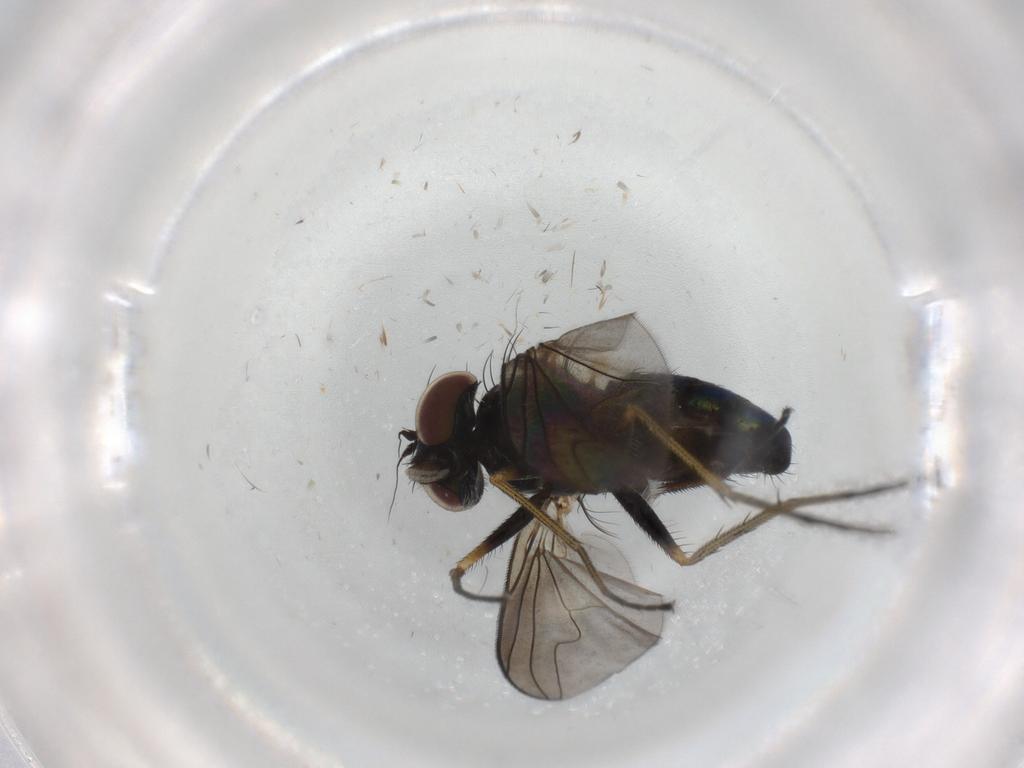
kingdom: Animalia
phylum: Arthropoda
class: Insecta
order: Diptera
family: Dolichopodidae
